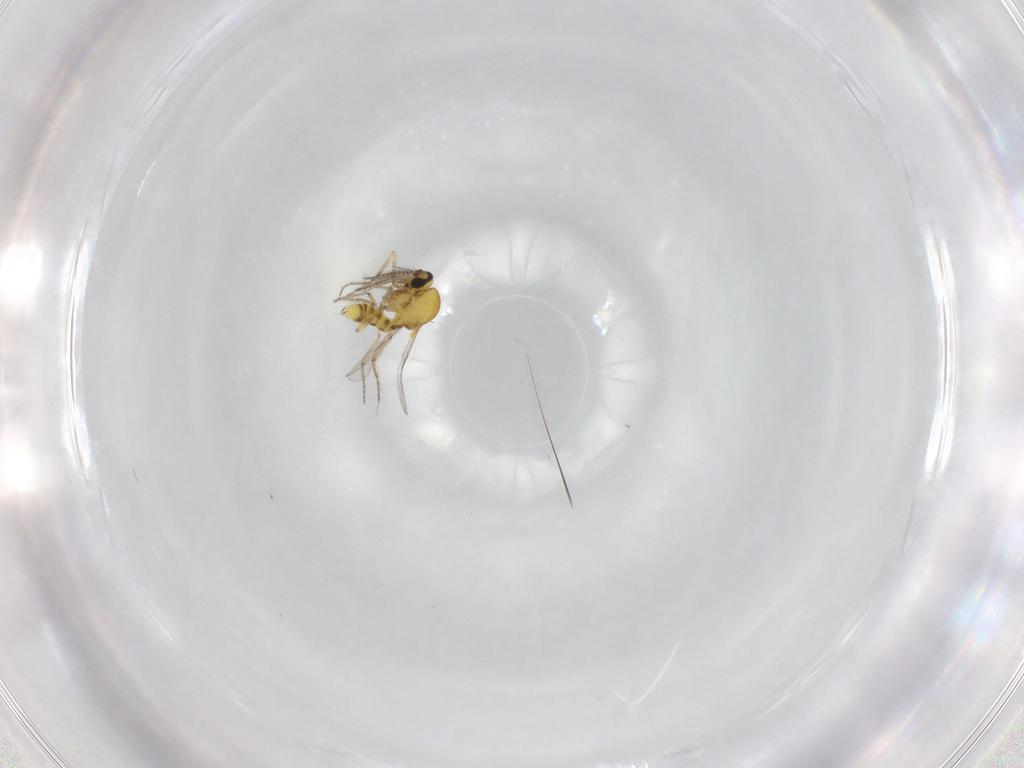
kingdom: Animalia
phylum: Arthropoda
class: Insecta
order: Diptera
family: Ceratopogonidae
